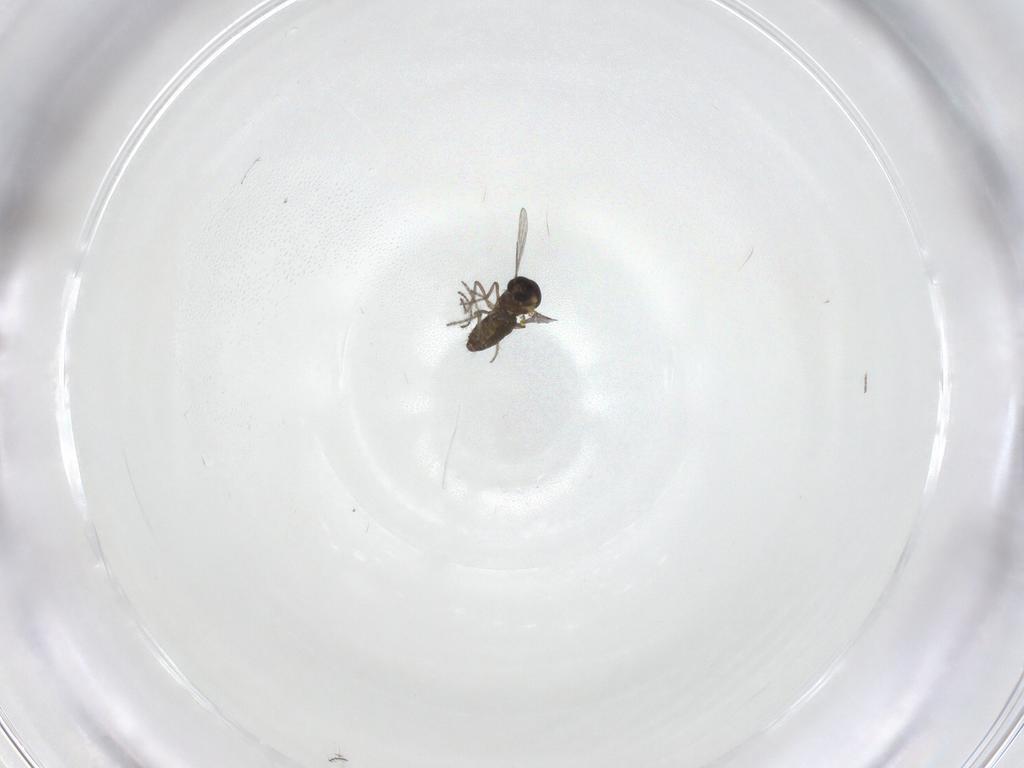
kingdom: Animalia
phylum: Arthropoda
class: Insecta
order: Diptera
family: Ceratopogonidae
